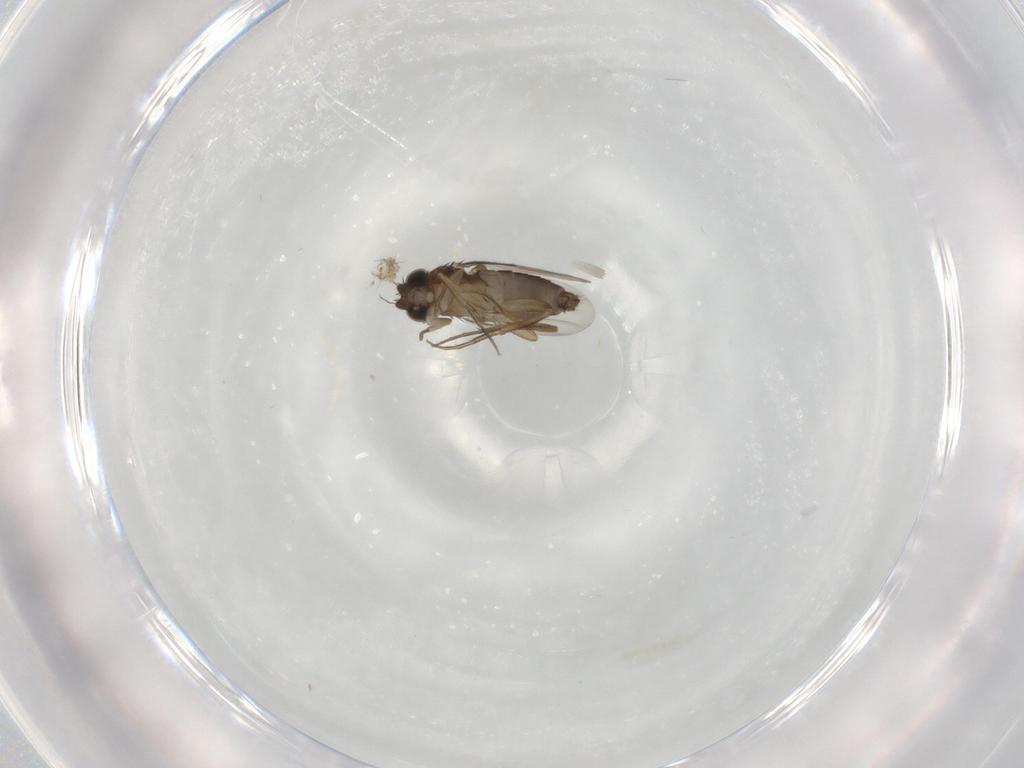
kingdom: Animalia
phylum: Arthropoda
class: Insecta
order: Diptera
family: Phoridae
